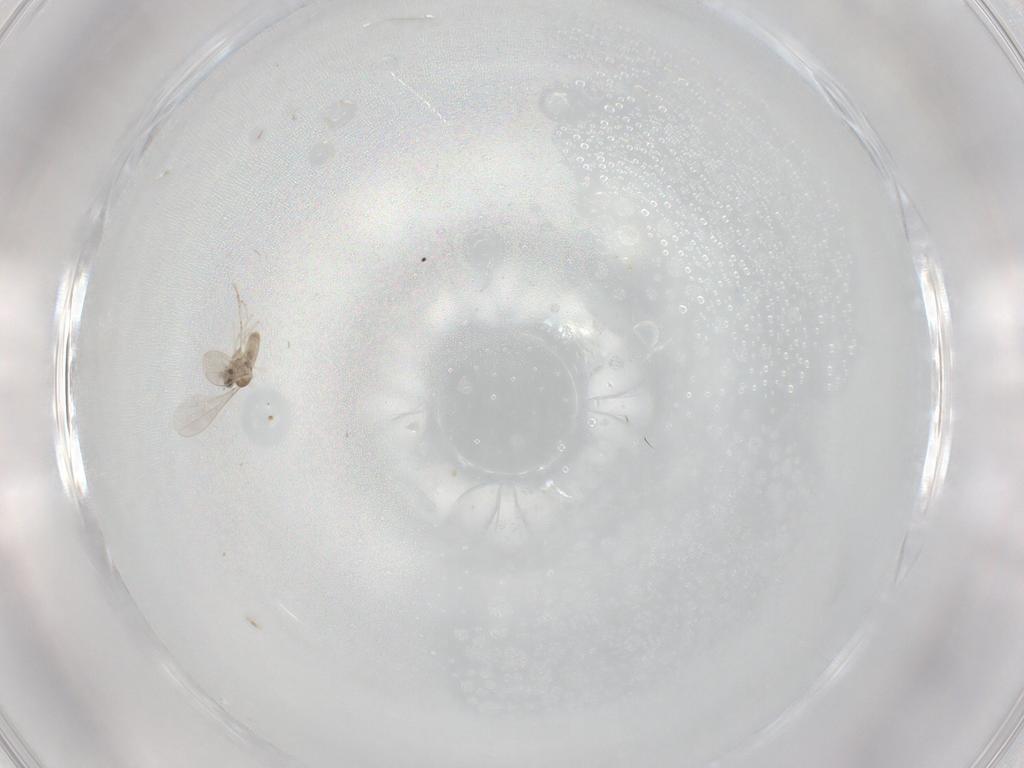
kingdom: Animalia
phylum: Arthropoda
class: Insecta
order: Diptera
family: Cecidomyiidae
